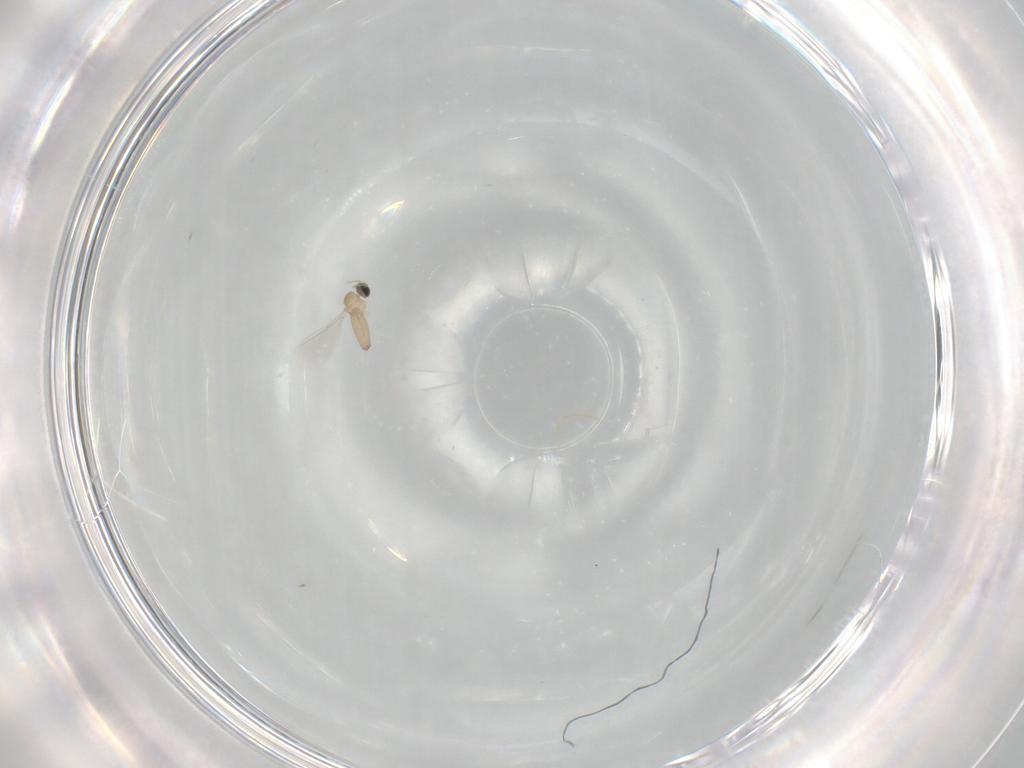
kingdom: Animalia
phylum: Arthropoda
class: Insecta
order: Diptera
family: Cecidomyiidae
